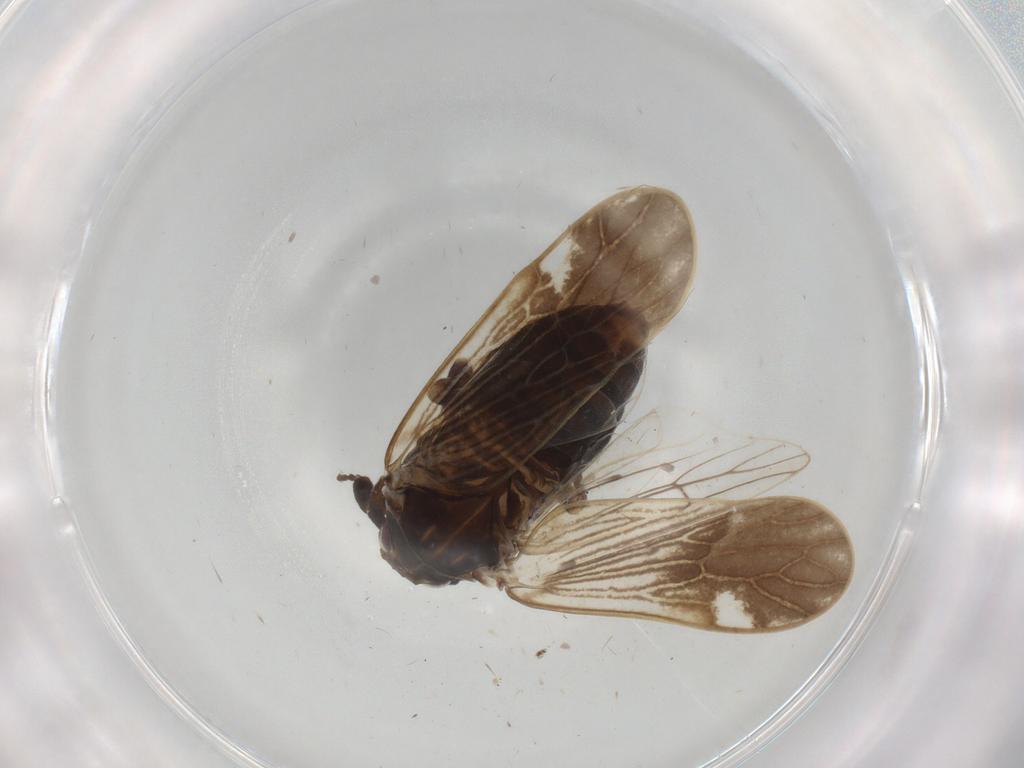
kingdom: Animalia
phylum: Arthropoda
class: Insecta
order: Hemiptera
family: Delphacidae
